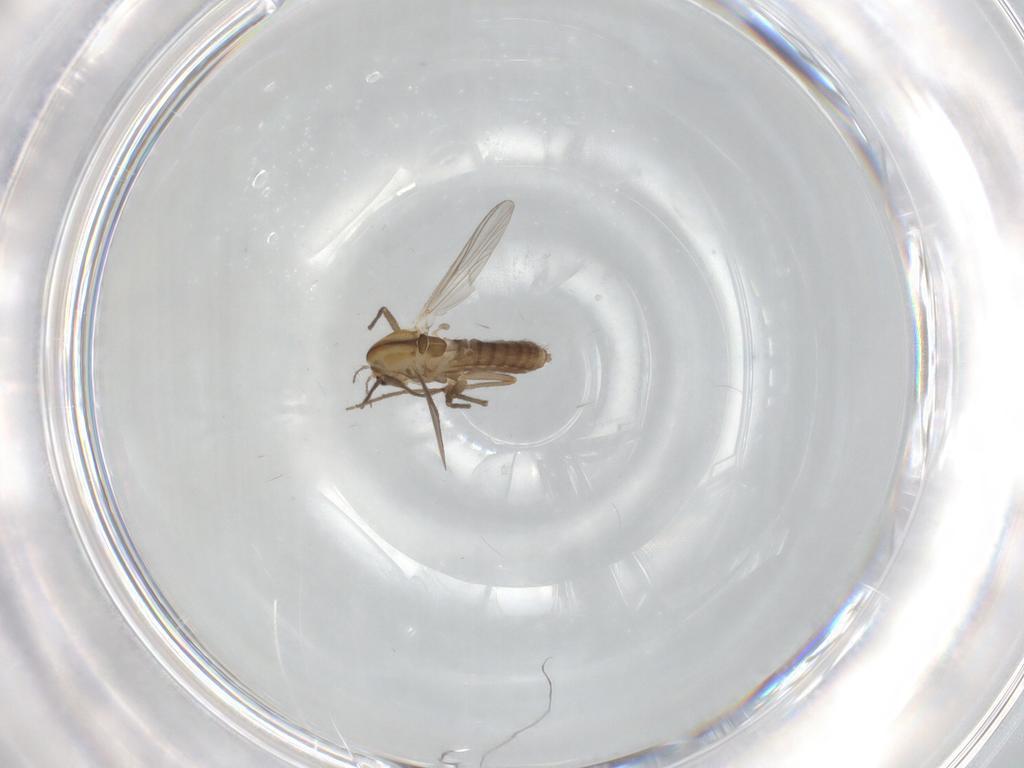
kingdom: Animalia
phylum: Arthropoda
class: Insecta
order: Diptera
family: Chironomidae
